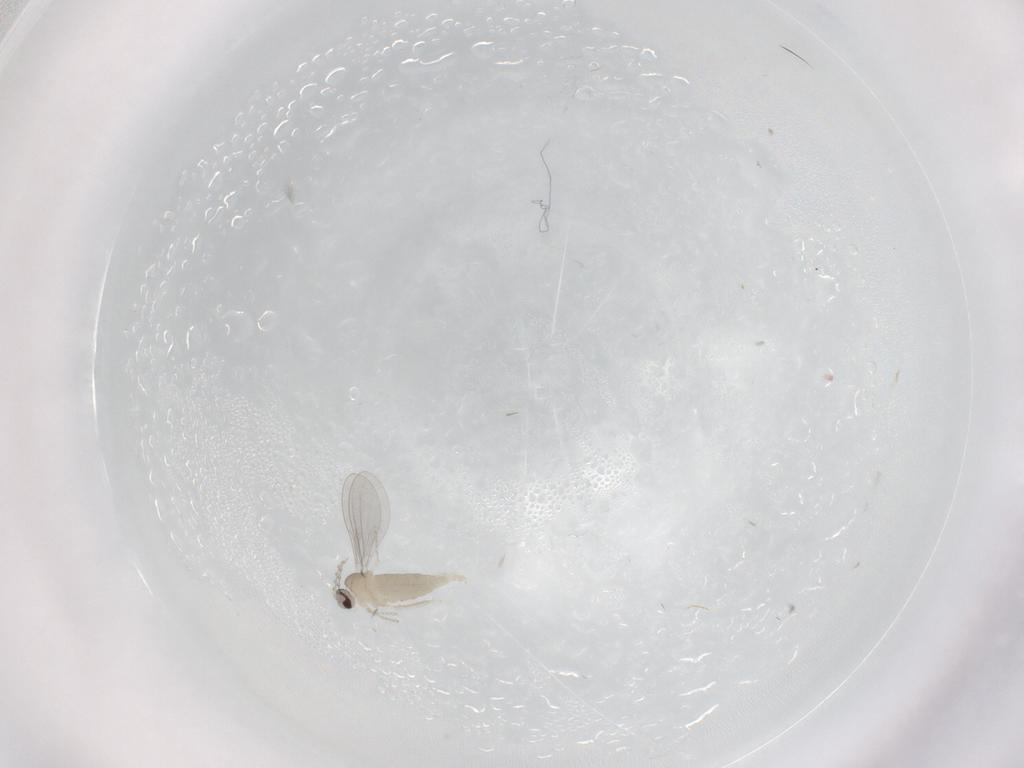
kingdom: Animalia
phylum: Arthropoda
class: Insecta
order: Diptera
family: Cecidomyiidae
